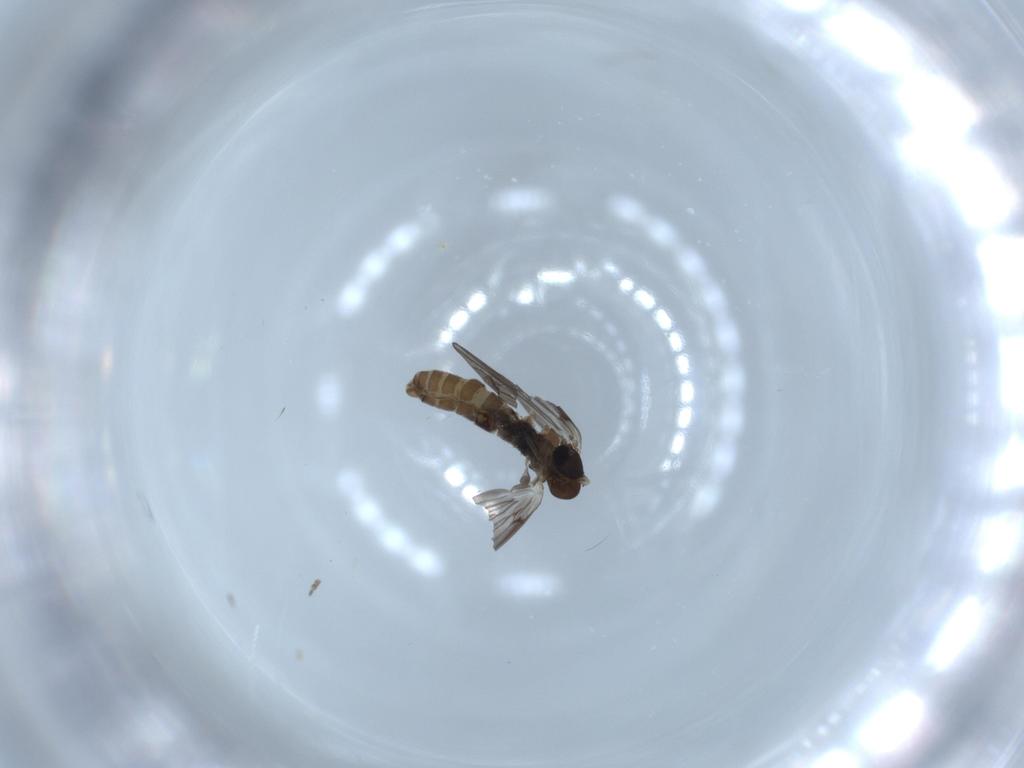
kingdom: Animalia
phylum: Arthropoda
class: Insecta
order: Diptera
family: Psychodidae
